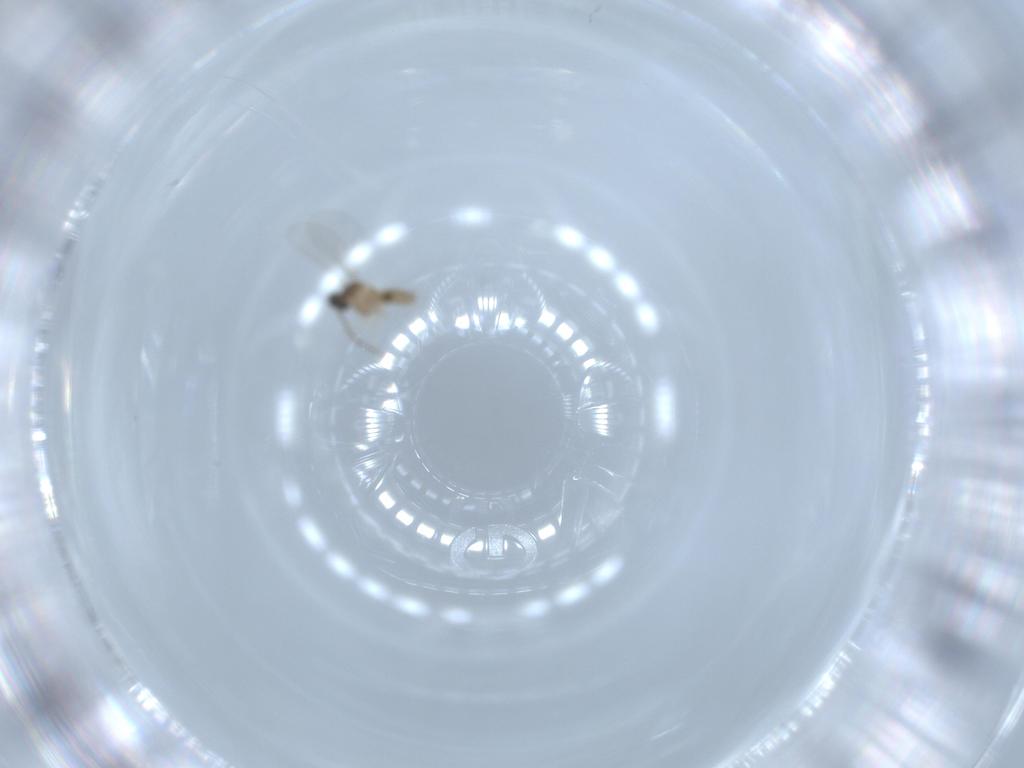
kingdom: Animalia
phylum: Arthropoda
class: Insecta
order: Diptera
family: Cecidomyiidae
